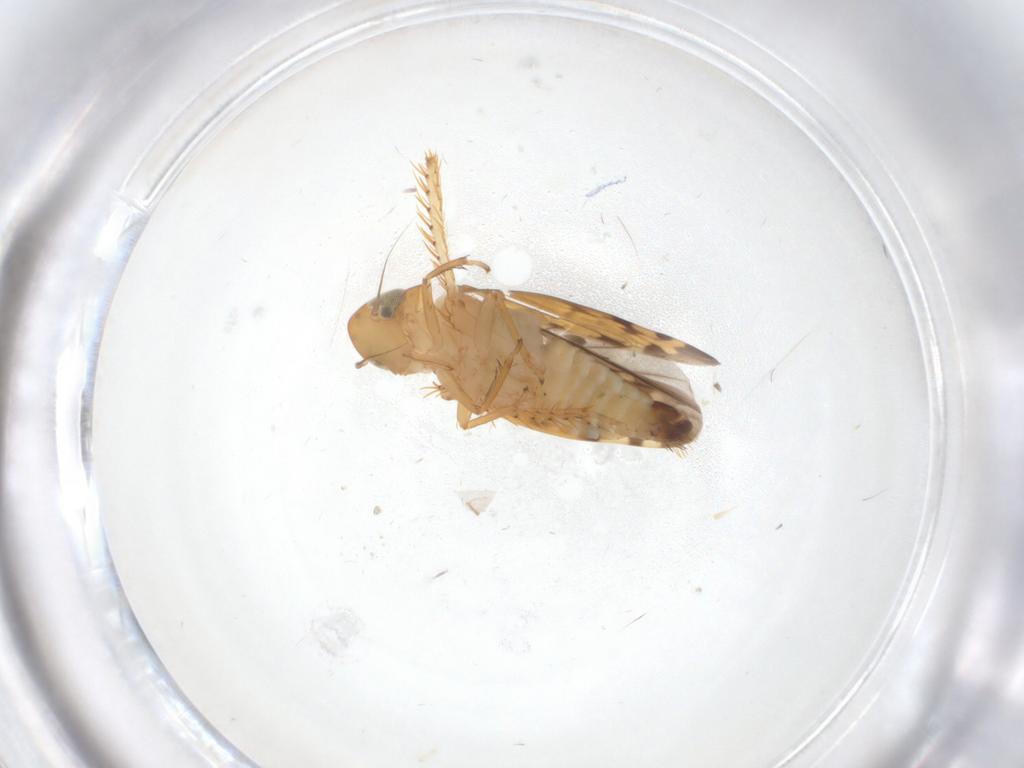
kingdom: Animalia
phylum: Arthropoda
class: Insecta
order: Hemiptera
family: Cicadellidae
